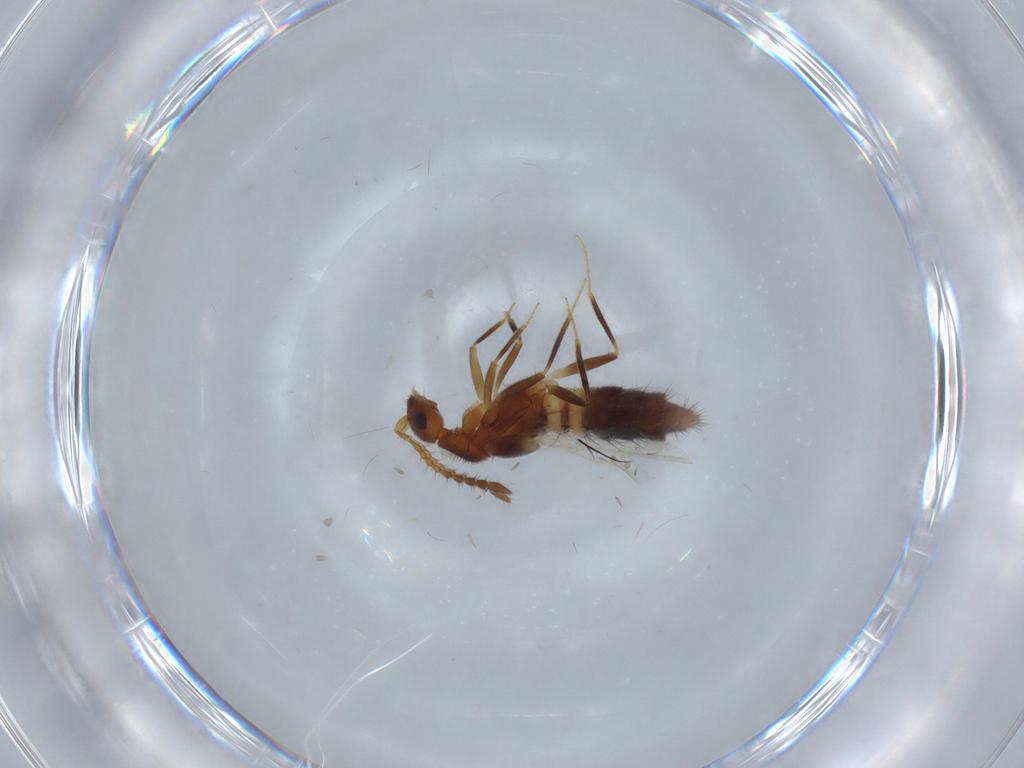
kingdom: Animalia
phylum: Arthropoda
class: Insecta
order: Coleoptera
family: Staphylinidae
